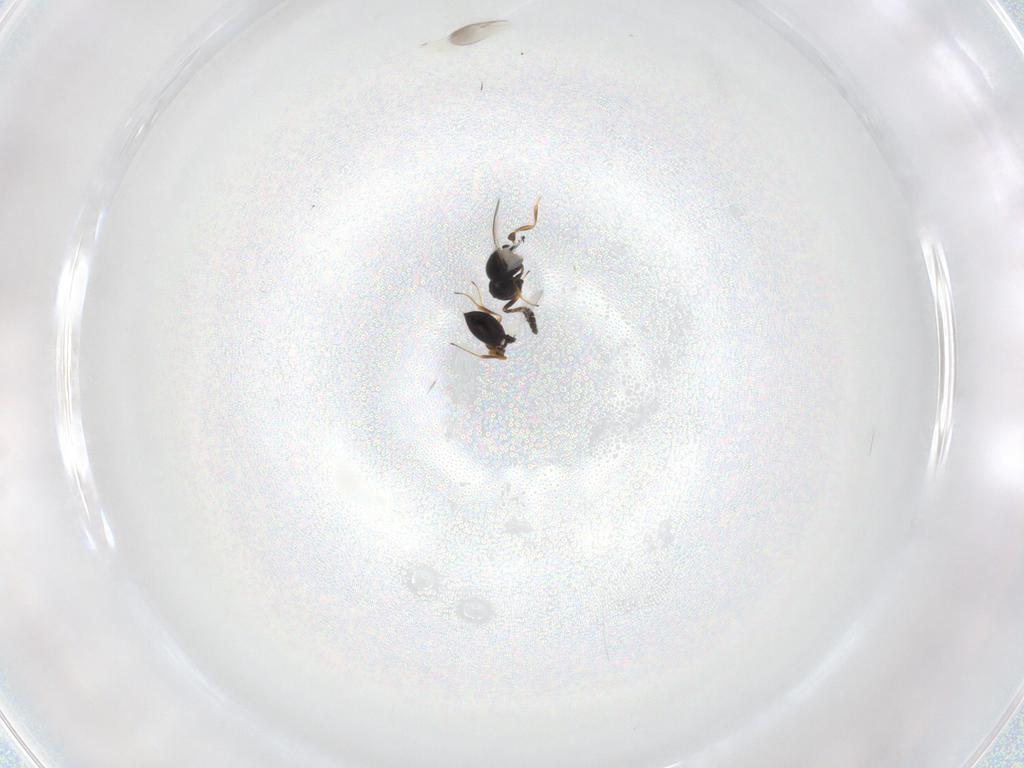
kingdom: Animalia
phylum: Arthropoda
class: Insecta
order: Hymenoptera
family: Scelionidae
